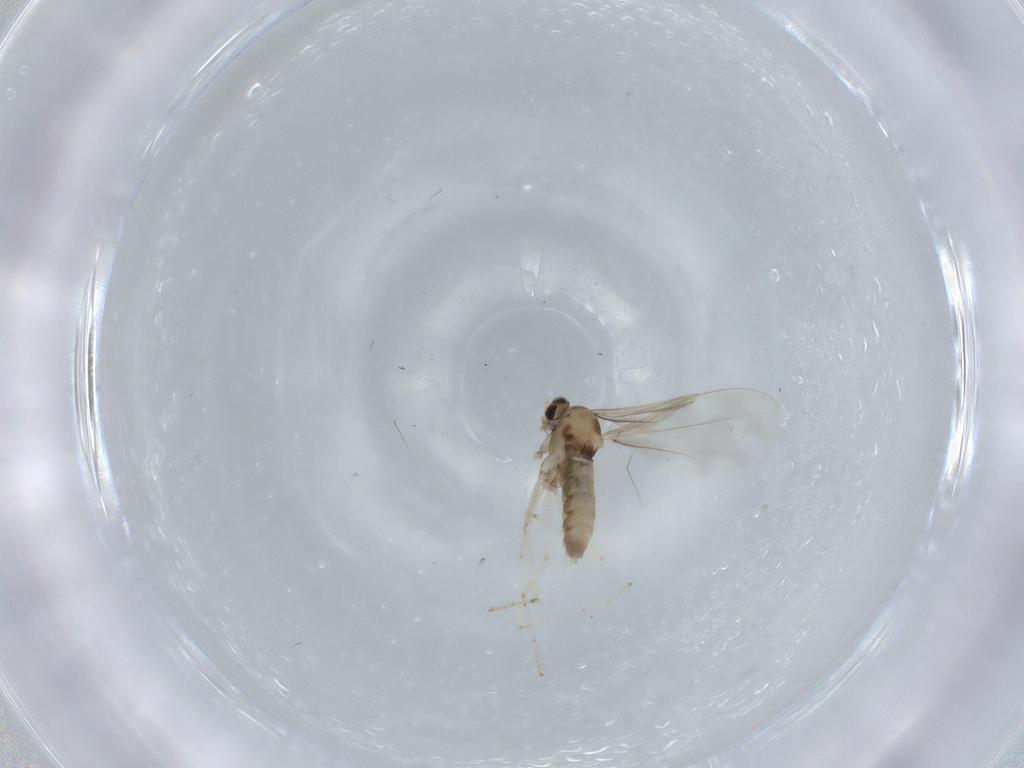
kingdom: Animalia
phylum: Arthropoda
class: Insecta
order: Diptera
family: Cecidomyiidae
